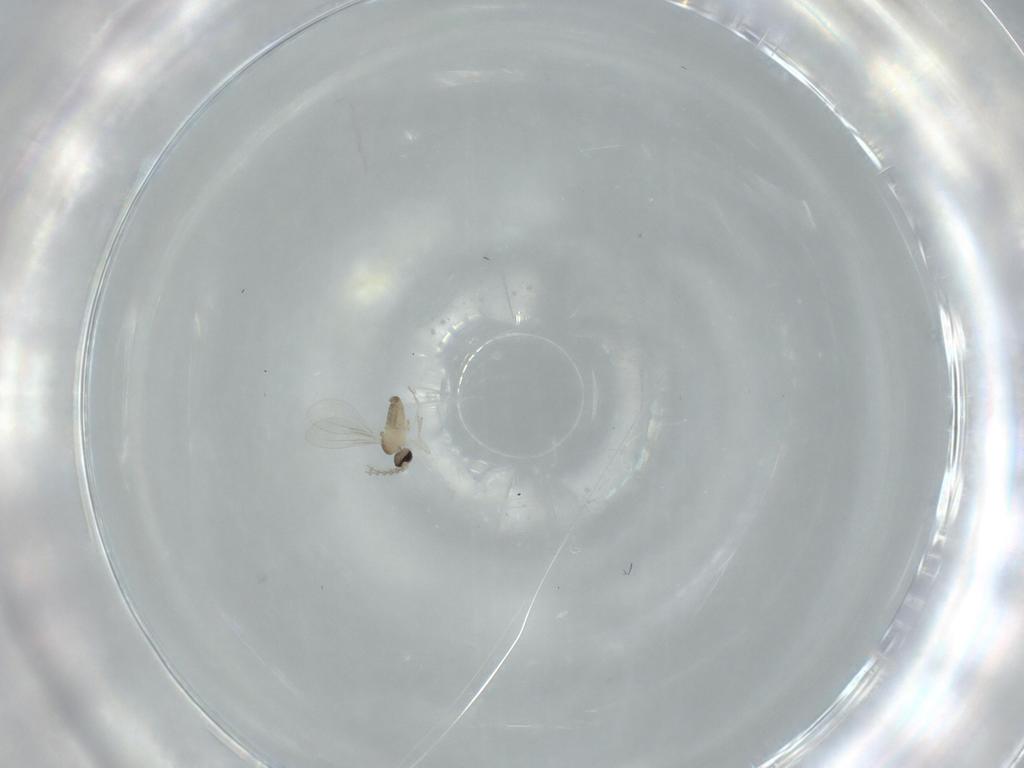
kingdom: Animalia
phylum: Arthropoda
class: Insecta
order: Diptera
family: Cecidomyiidae
